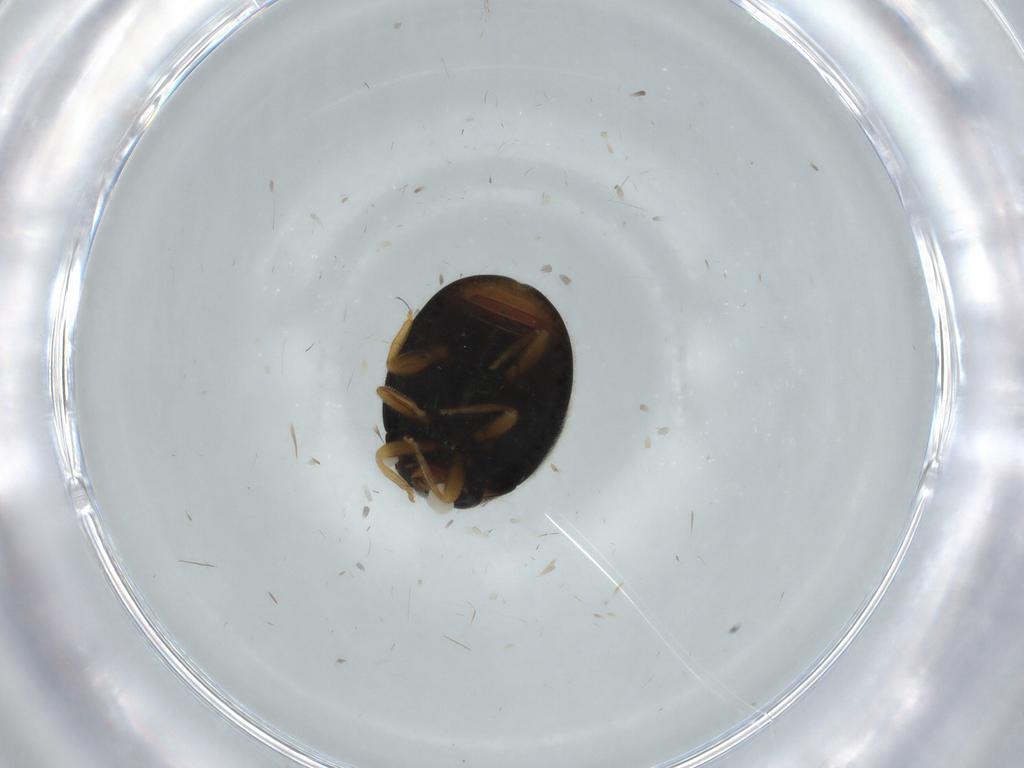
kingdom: Animalia
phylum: Arthropoda
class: Insecta
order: Coleoptera
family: Coccinellidae
